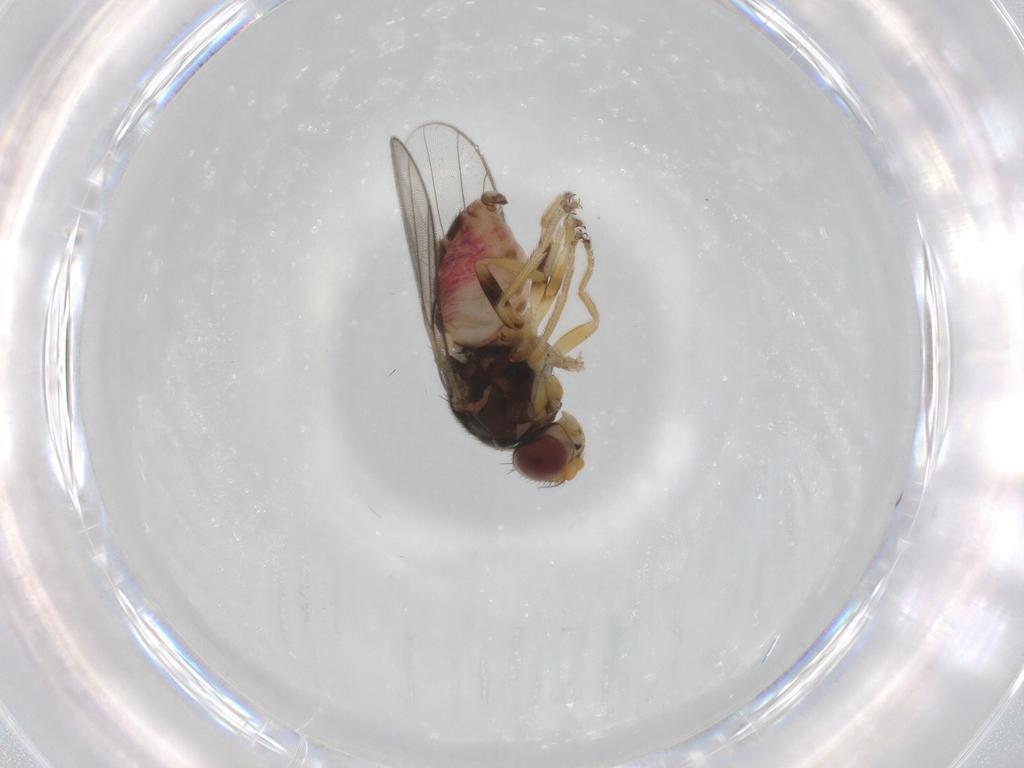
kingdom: Animalia
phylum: Arthropoda
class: Insecta
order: Diptera
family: Chloropidae
